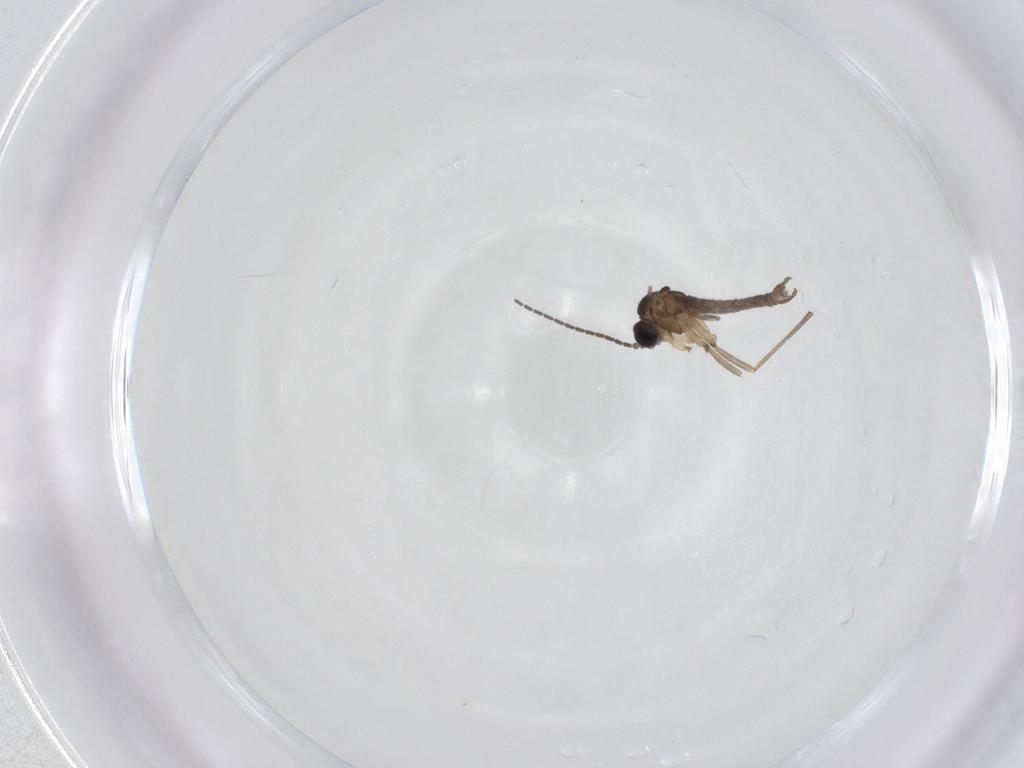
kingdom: Animalia
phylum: Arthropoda
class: Insecta
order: Diptera
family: Sciaridae
